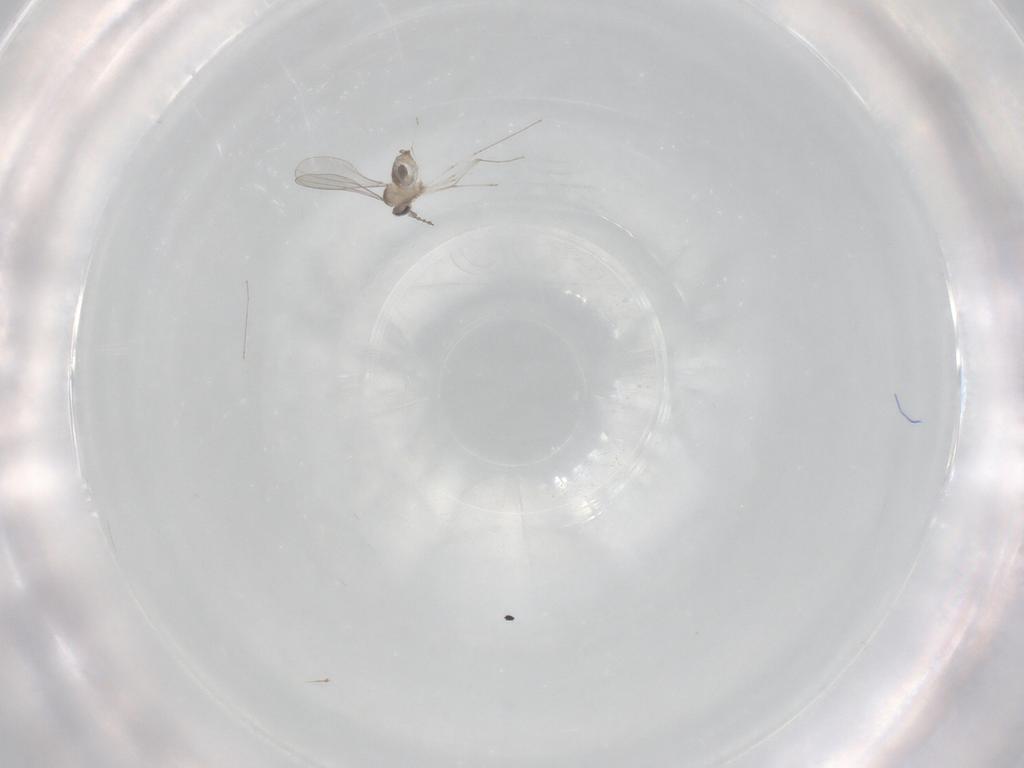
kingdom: Animalia
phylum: Arthropoda
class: Insecta
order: Diptera
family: Cecidomyiidae
